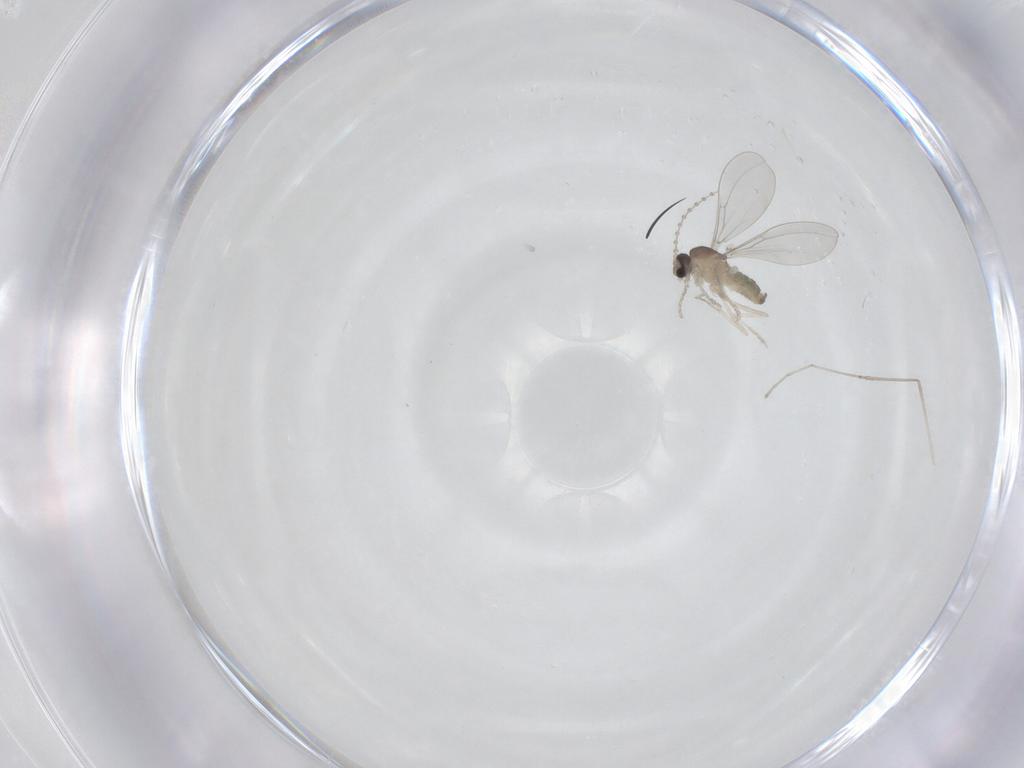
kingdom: Animalia
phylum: Arthropoda
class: Insecta
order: Diptera
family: Cecidomyiidae
